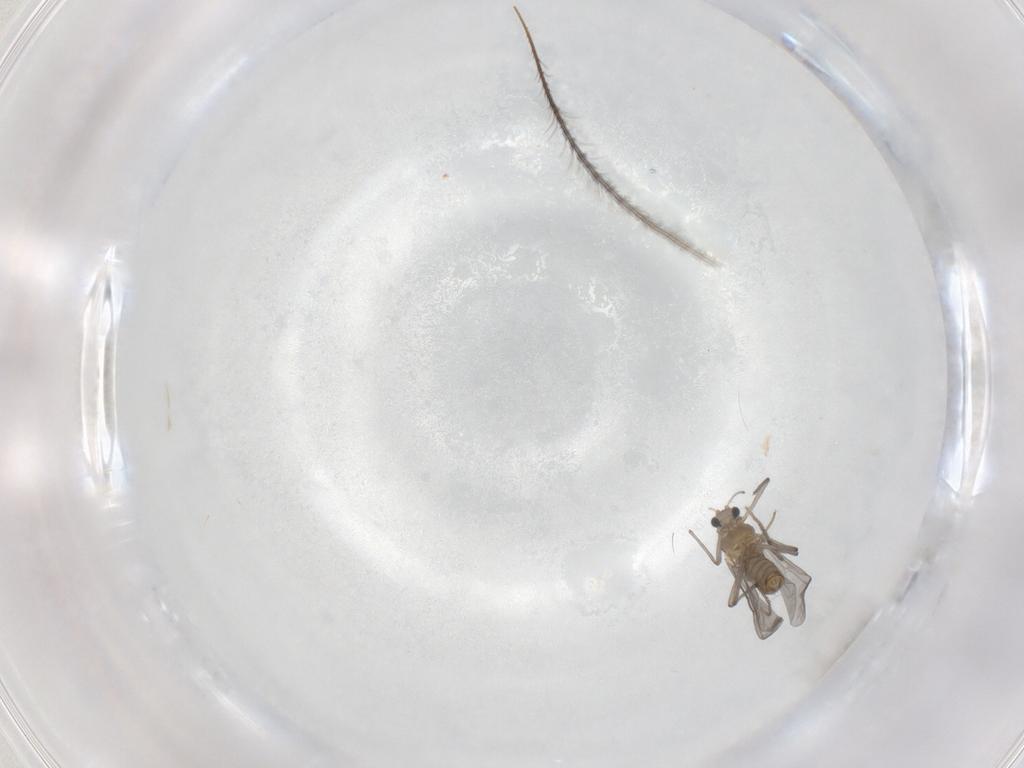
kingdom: Animalia
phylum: Arthropoda
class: Insecta
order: Diptera
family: Chironomidae
